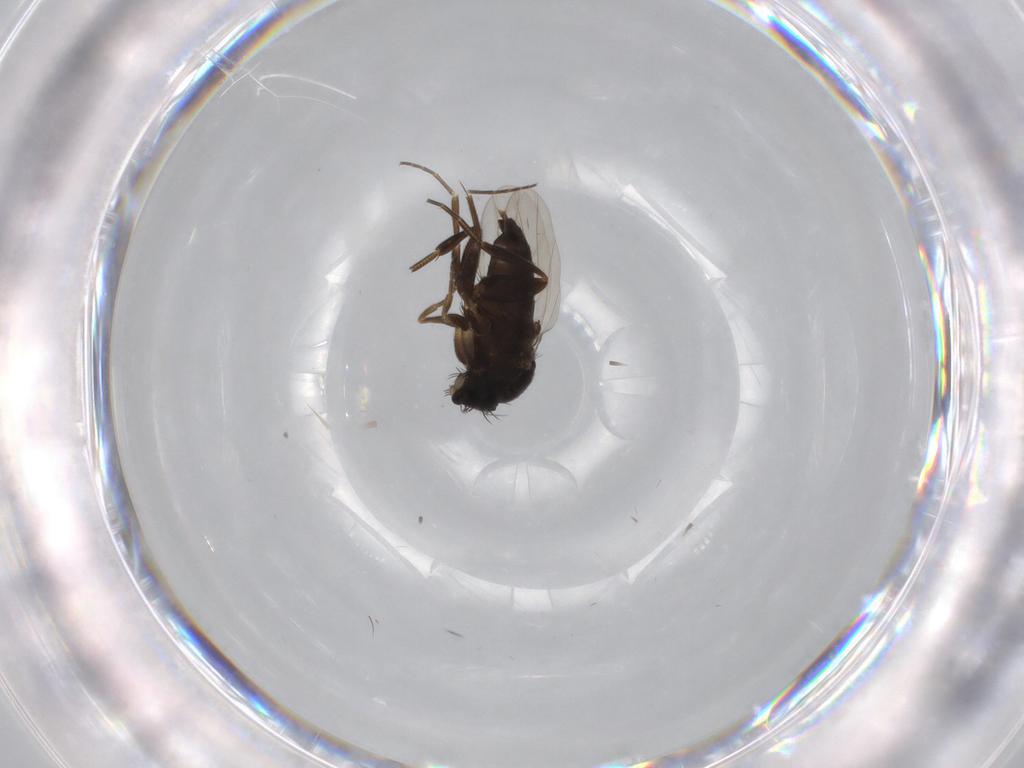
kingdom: Animalia
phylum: Arthropoda
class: Insecta
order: Diptera
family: Phoridae
